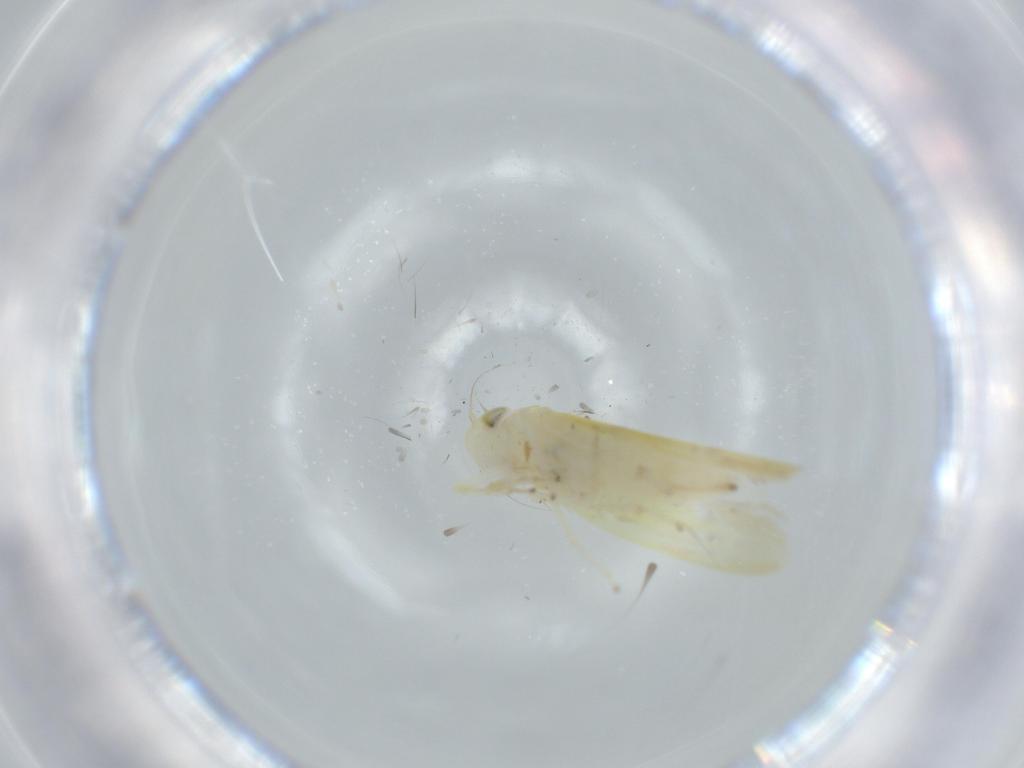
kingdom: Animalia
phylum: Arthropoda
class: Insecta
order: Hemiptera
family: Cicadellidae
